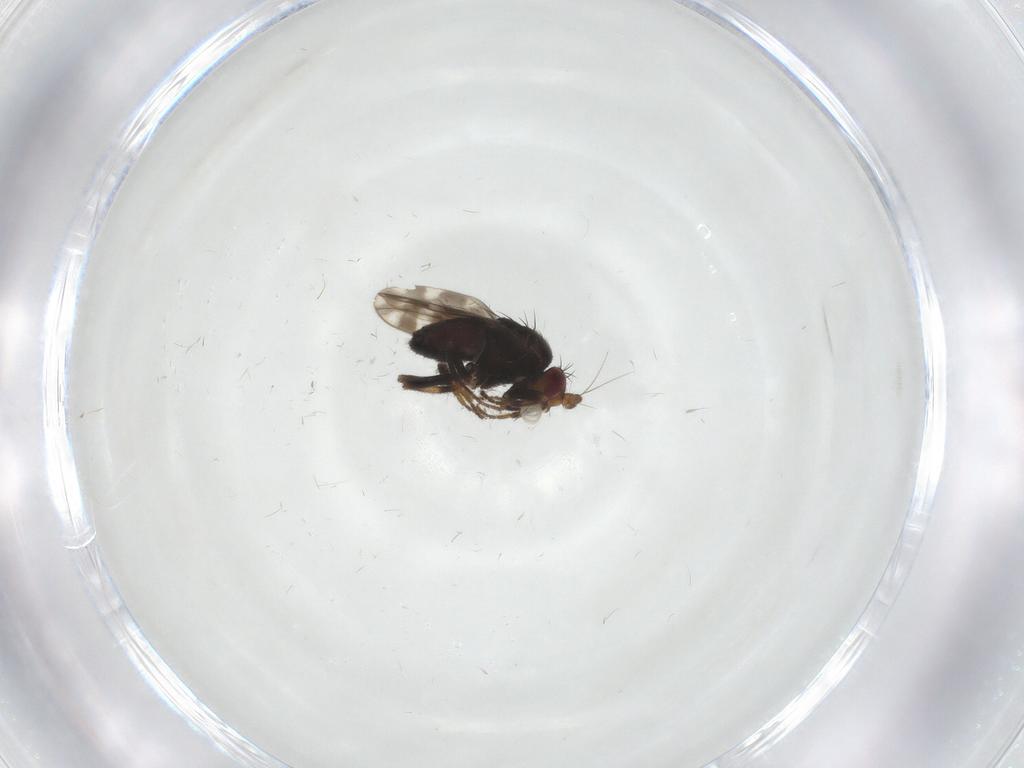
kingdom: Animalia
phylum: Arthropoda
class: Insecta
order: Diptera
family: Sphaeroceridae
